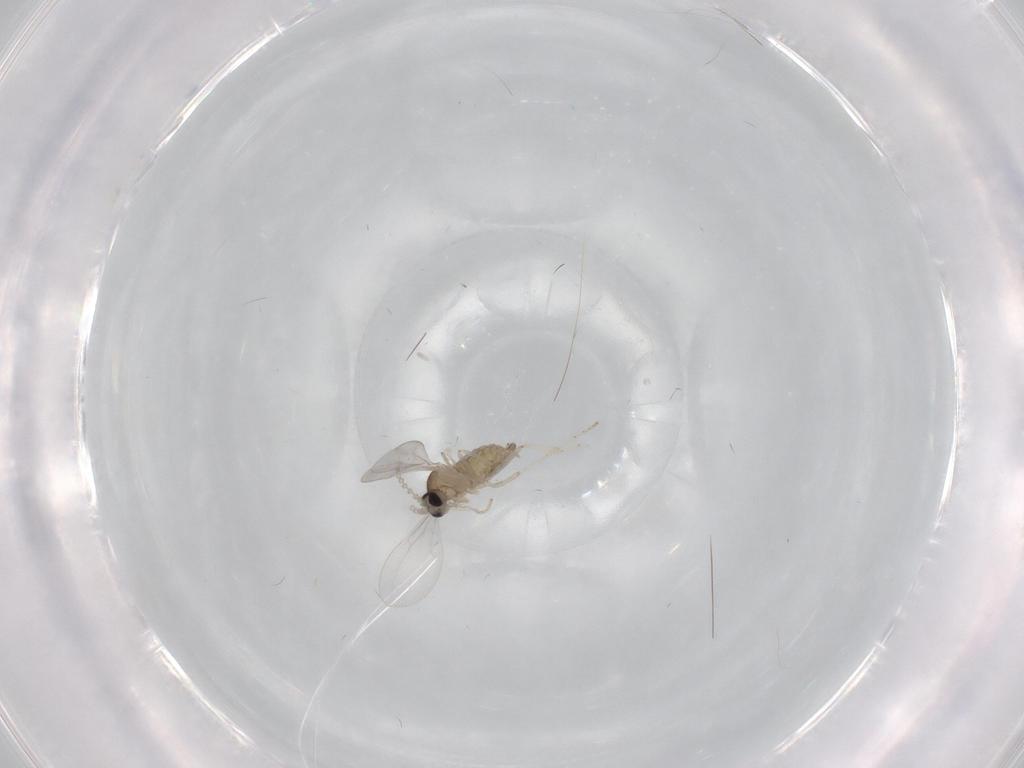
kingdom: Animalia
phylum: Arthropoda
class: Insecta
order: Diptera
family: Cecidomyiidae
